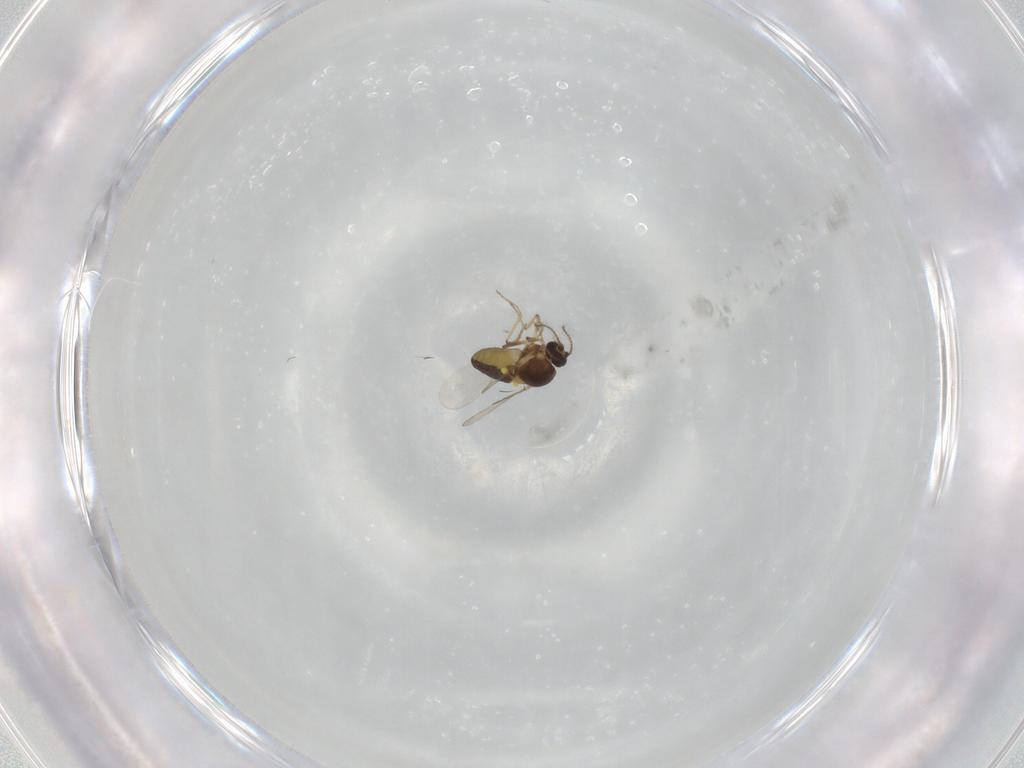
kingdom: Animalia
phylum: Arthropoda
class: Insecta
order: Diptera
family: Ceratopogonidae
